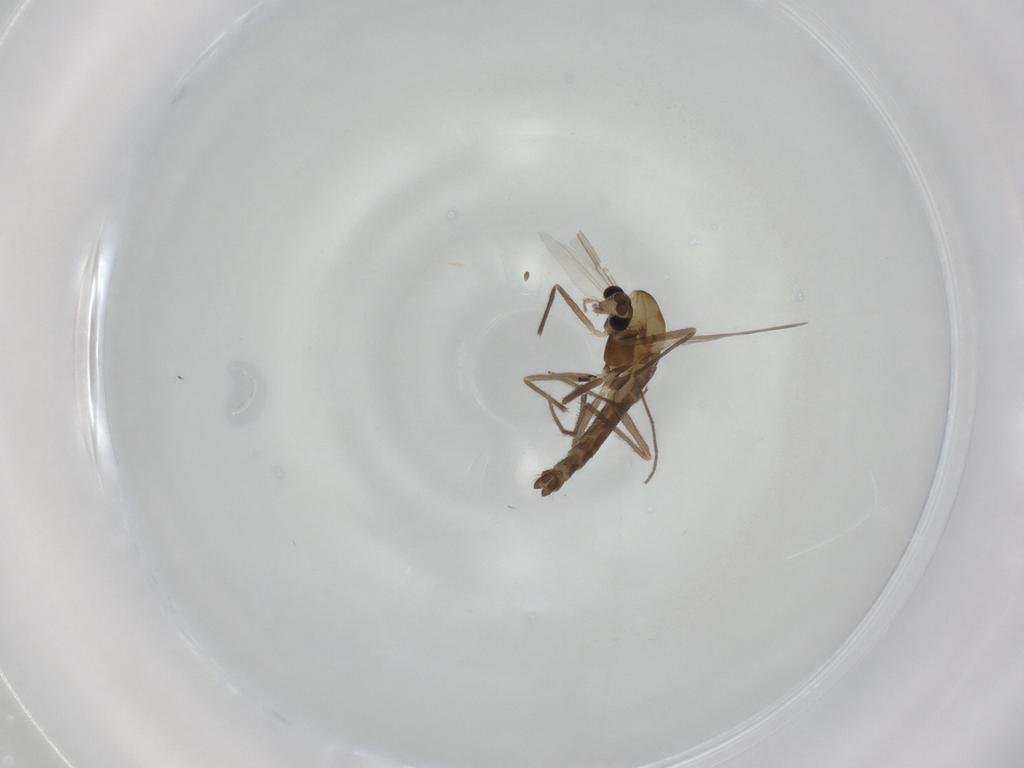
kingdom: Animalia
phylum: Arthropoda
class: Insecta
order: Diptera
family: Chironomidae
